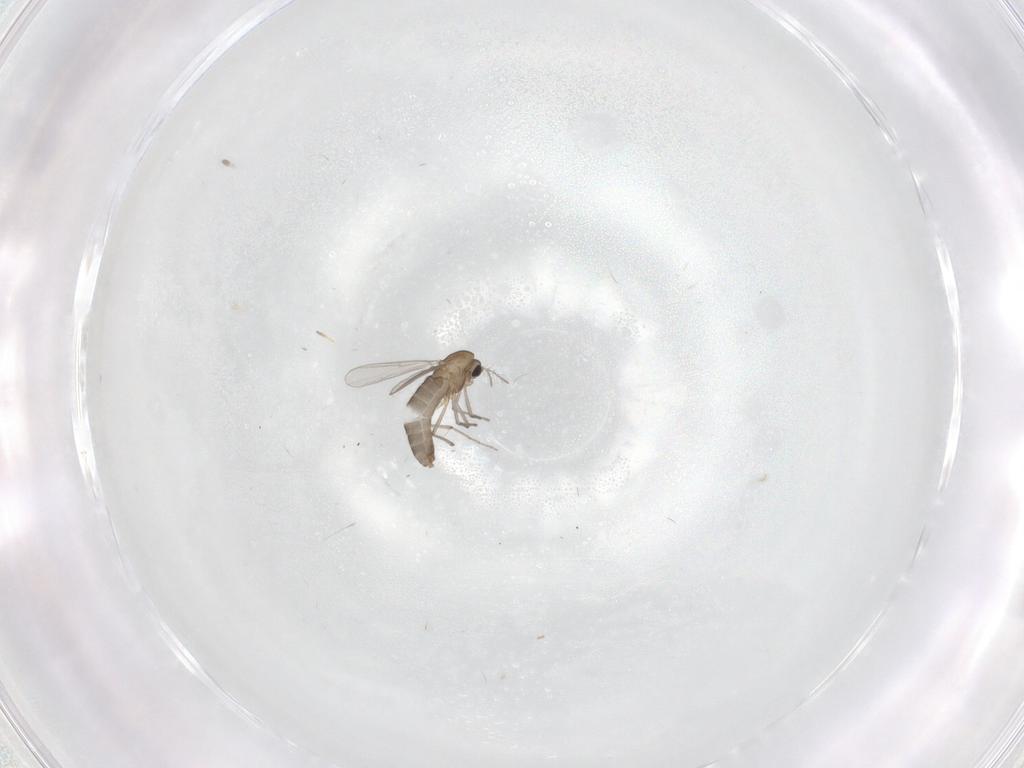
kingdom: Animalia
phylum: Arthropoda
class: Insecta
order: Diptera
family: Chironomidae
